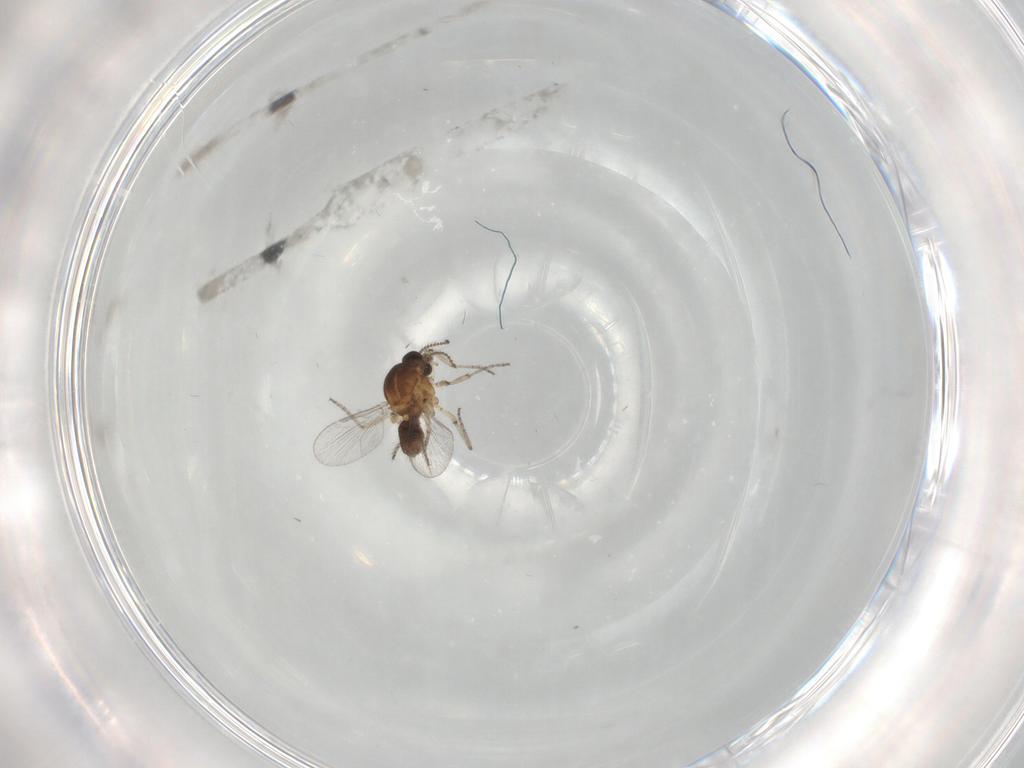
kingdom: Animalia
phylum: Arthropoda
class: Insecta
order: Diptera
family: Ceratopogonidae
